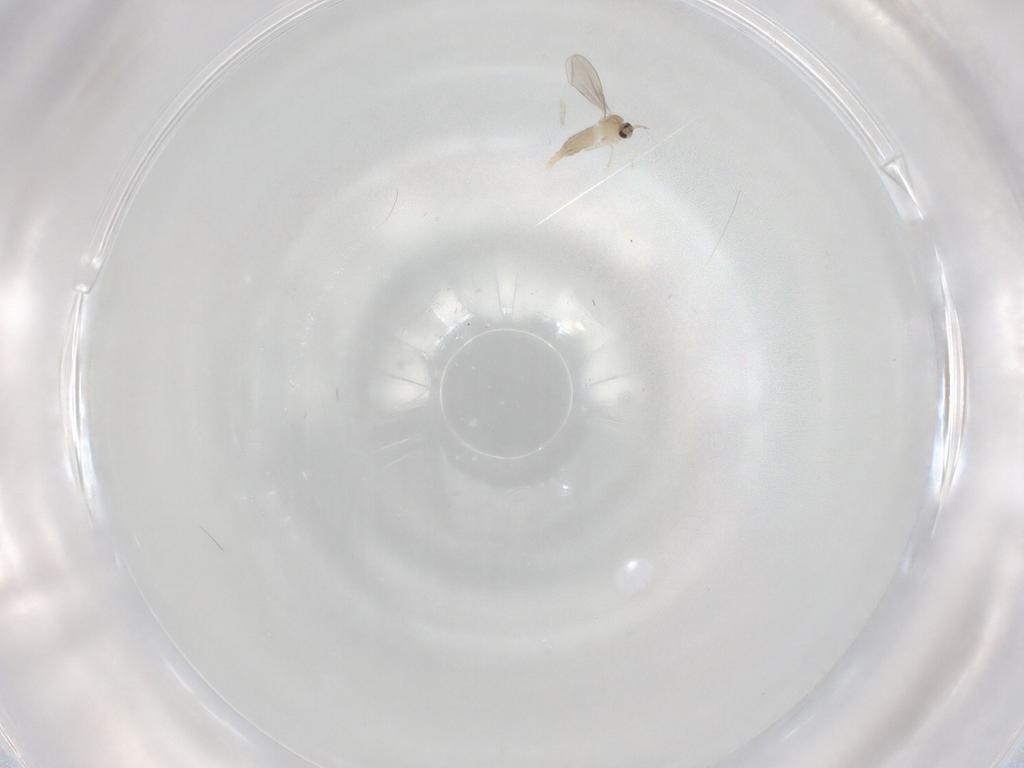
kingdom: Animalia
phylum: Arthropoda
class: Insecta
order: Diptera
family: Cecidomyiidae
